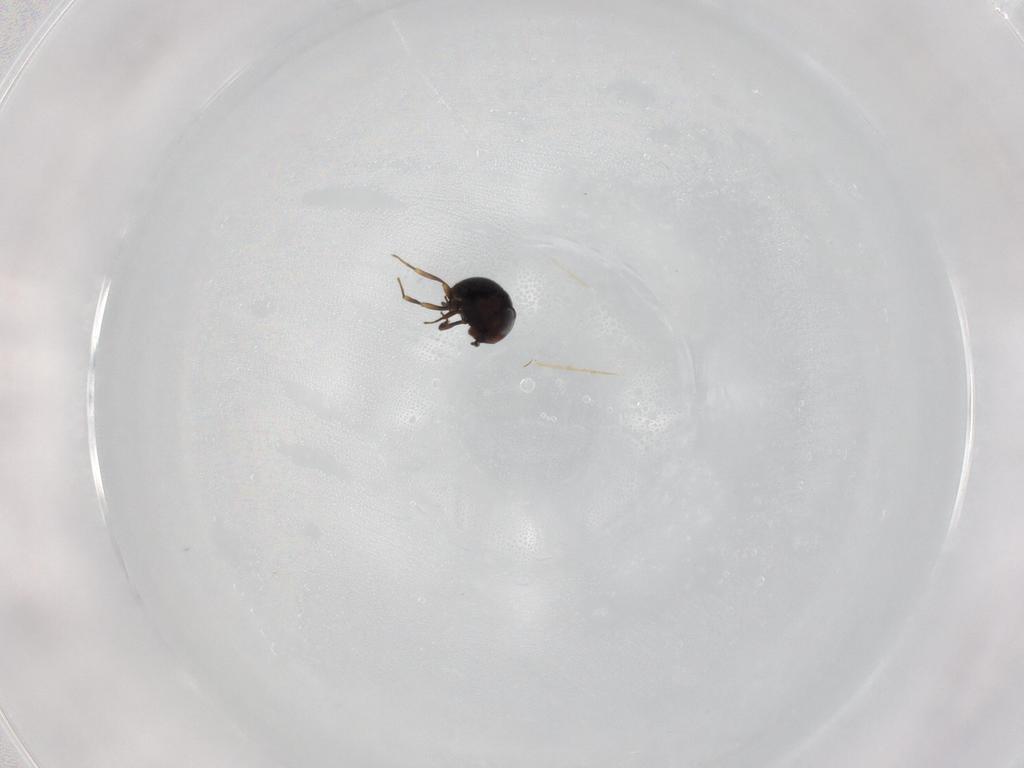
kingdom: Animalia
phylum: Arthropoda
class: Insecta
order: Hymenoptera
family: Scelionidae
